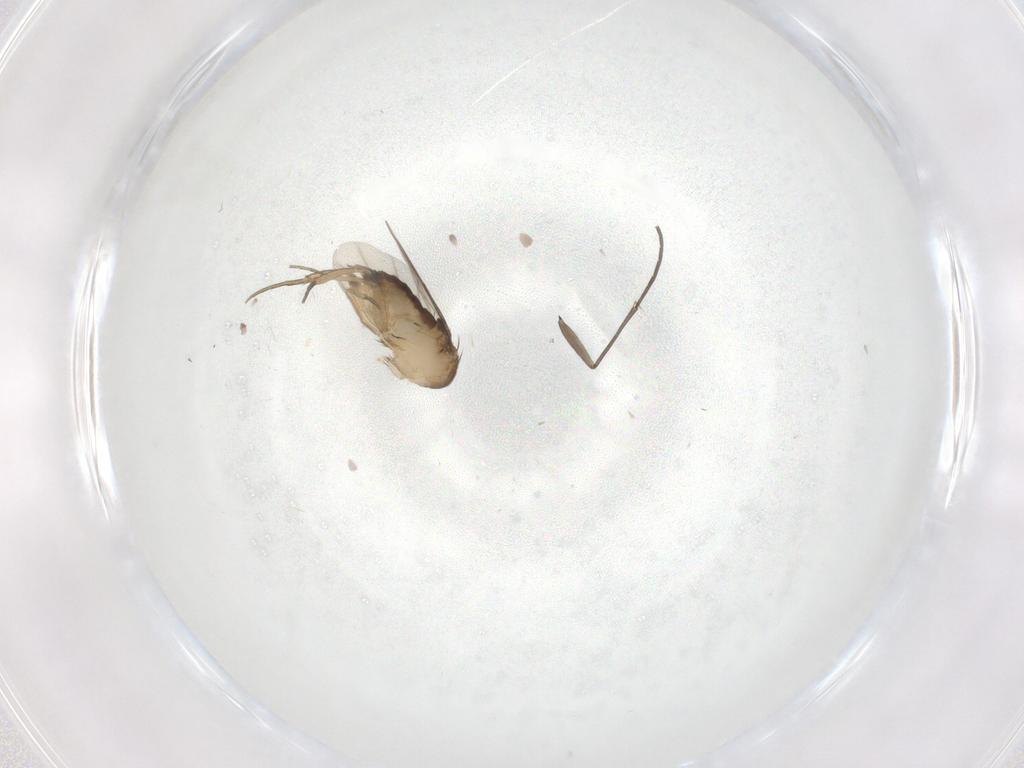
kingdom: Animalia
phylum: Arthropoda
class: Insecta
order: Diptera
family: Phoridae
